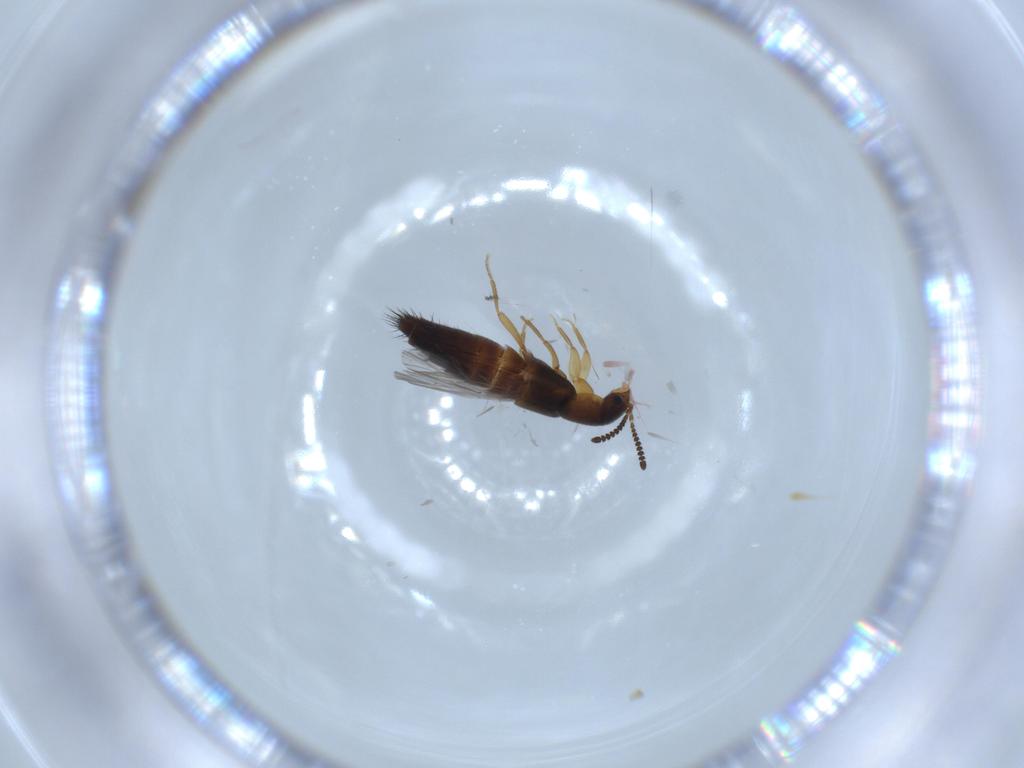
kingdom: Animalia
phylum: Arthropoda
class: Insecta
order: Coleoptera
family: Staphylinidae
